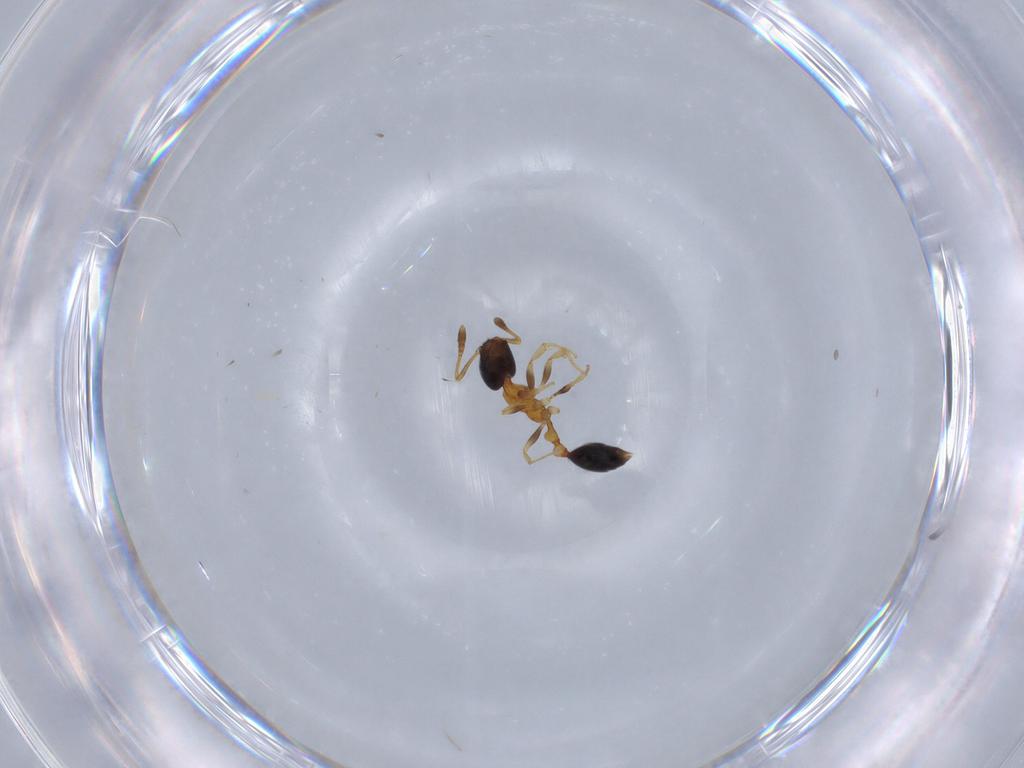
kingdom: Animalia
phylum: Arthropoda
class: Insecta
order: Hymenoptera
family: Formicidae
